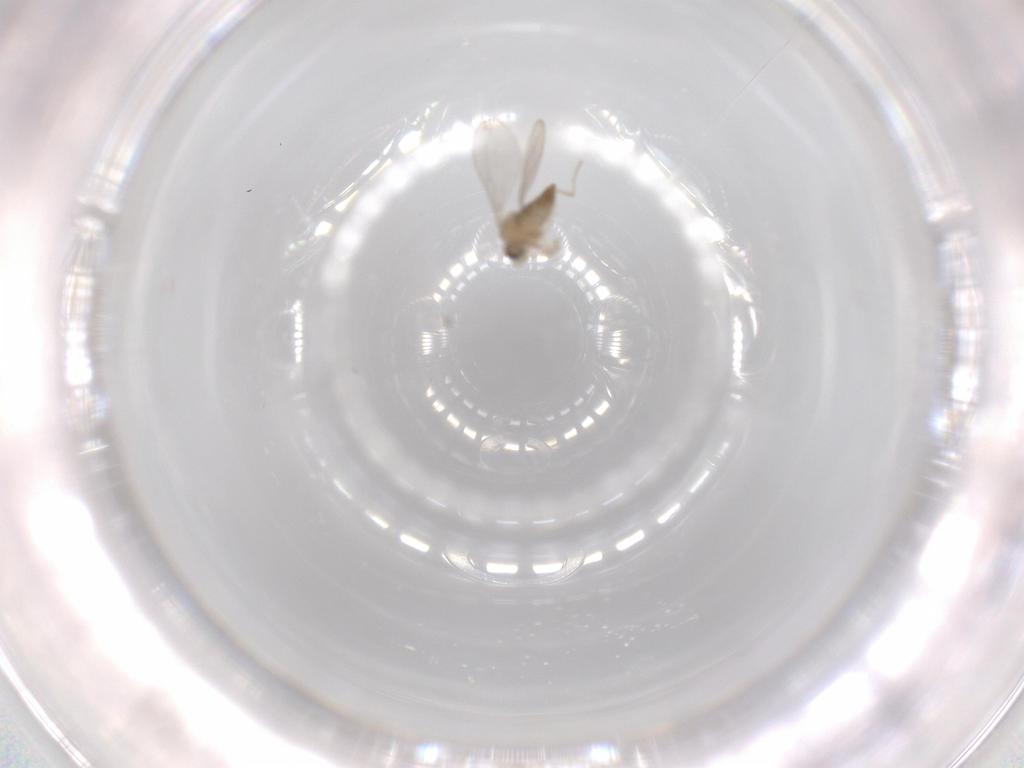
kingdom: Animalia
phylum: Arthropoda
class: Insecta
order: Diptera
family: Cecidomyiidae
